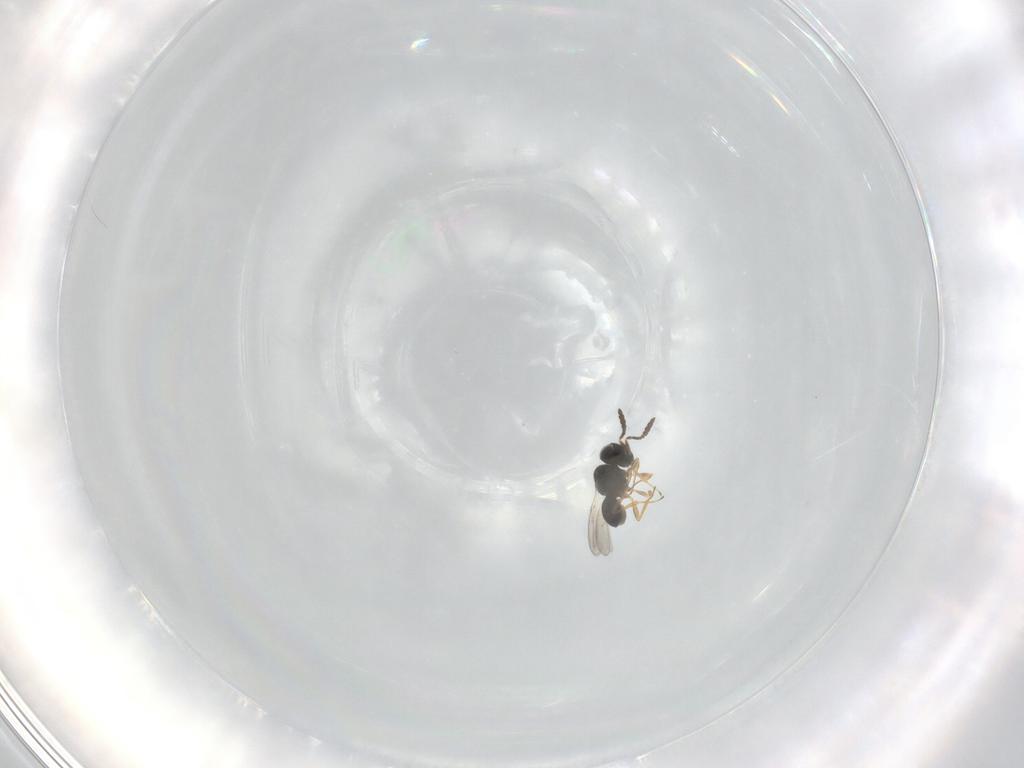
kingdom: Animalia
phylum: Arthropoda
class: Insecta
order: Hymenoptera
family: Scelionidae
